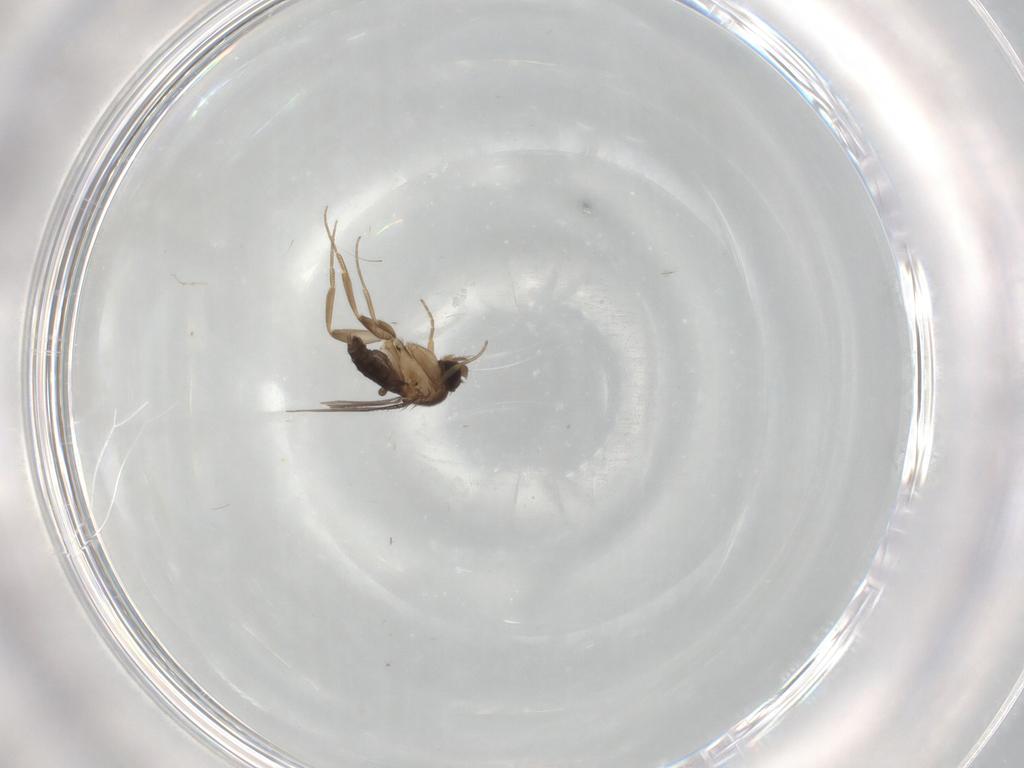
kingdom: Animalia
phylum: Arthropoda
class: Insecta
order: Diptera
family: Phoridae
